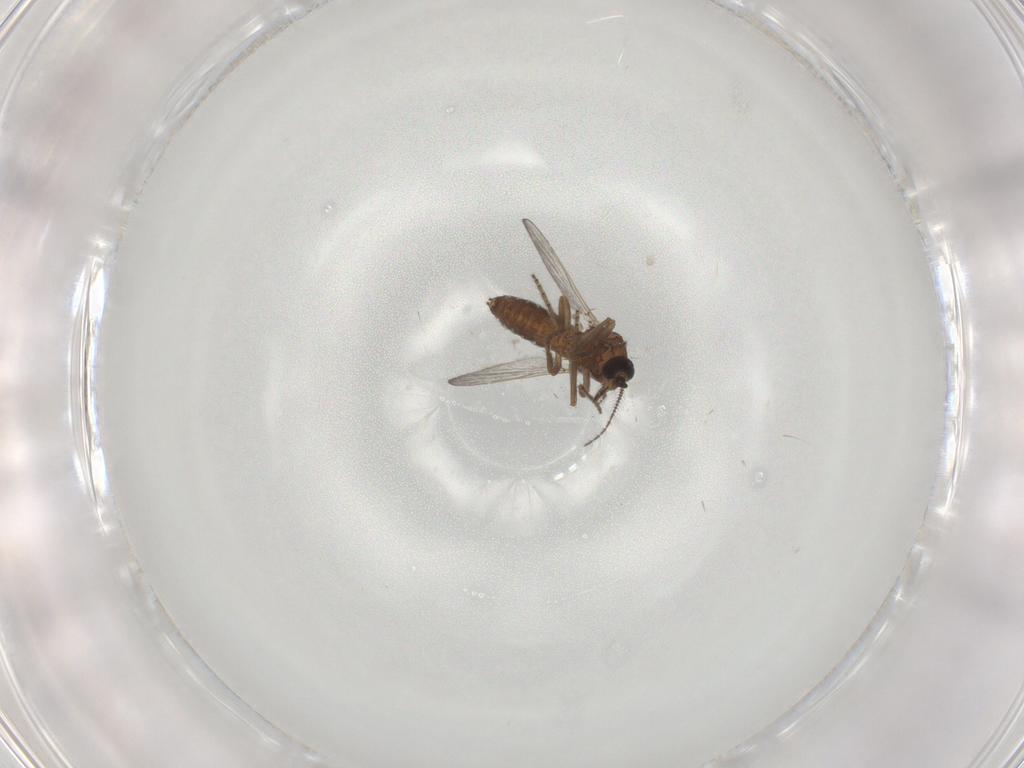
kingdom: Animalia
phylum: Arthropoda
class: Insecta
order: Diptera
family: Ceratopogonidae
